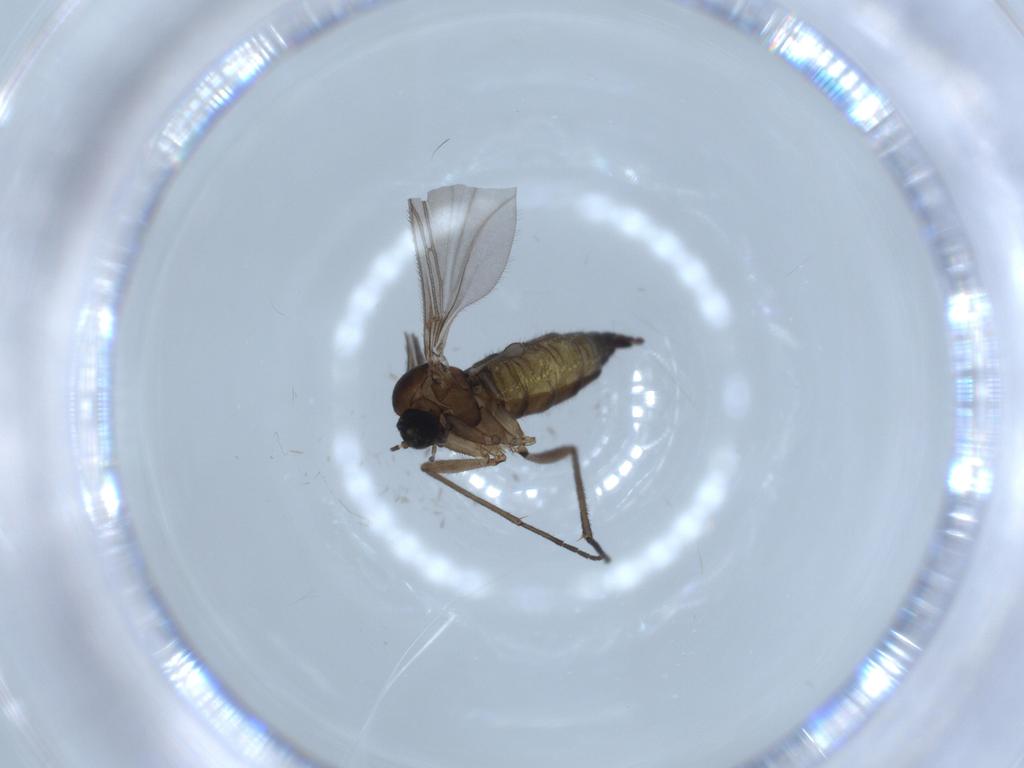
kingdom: Animalia
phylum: Arthropoda
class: Insecta
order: Diptera
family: Sciaridae
